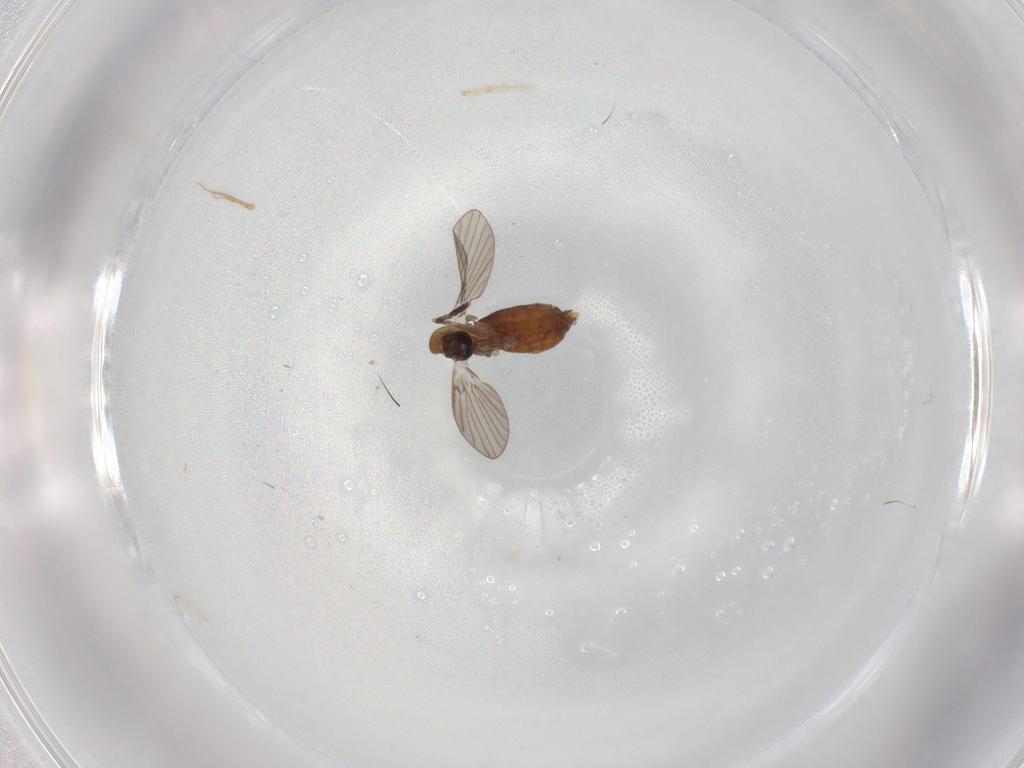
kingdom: Animalia
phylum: Arthropoda
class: Insecta
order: Diptera
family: Chironomidae
